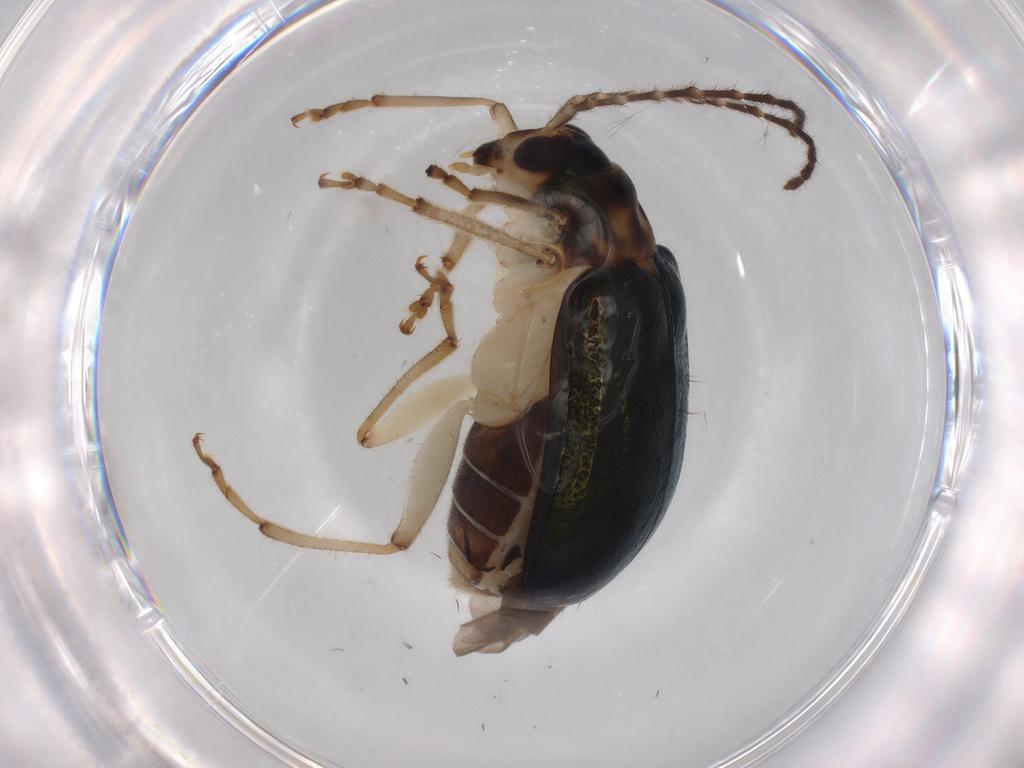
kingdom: Animalia
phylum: Arthropoda
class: Insecta
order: Coleoptera
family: Chrysomelidae
